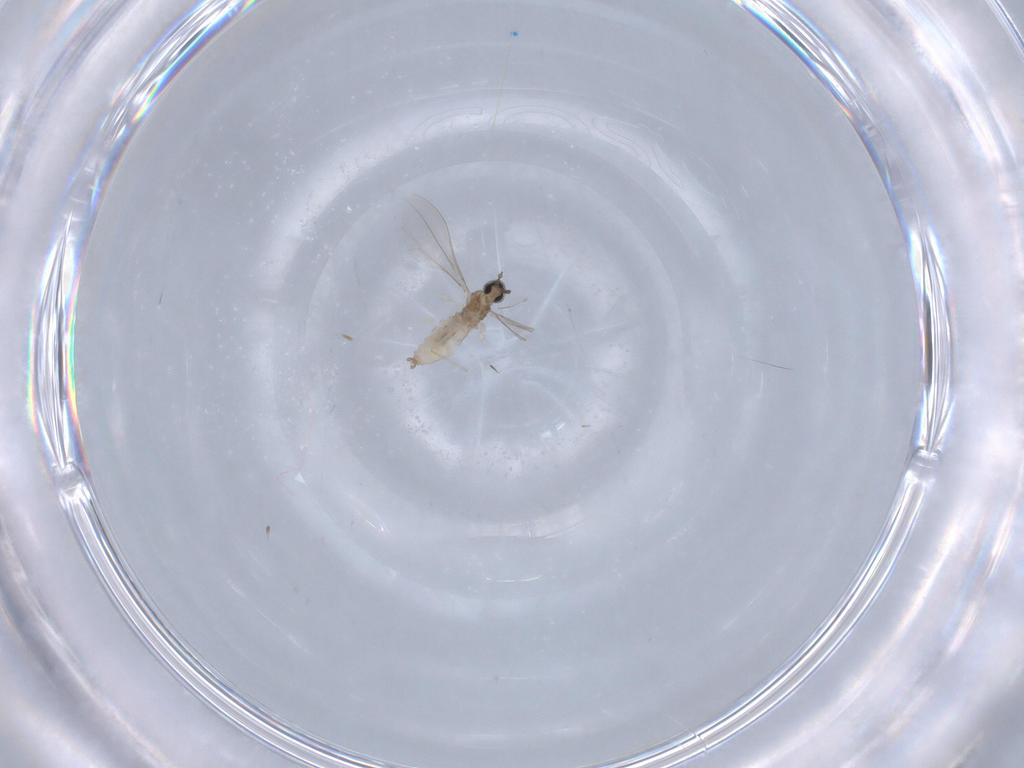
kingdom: Animalia
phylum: Arthropoda
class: Insecta
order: Diptera
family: Cecidomyiidae
